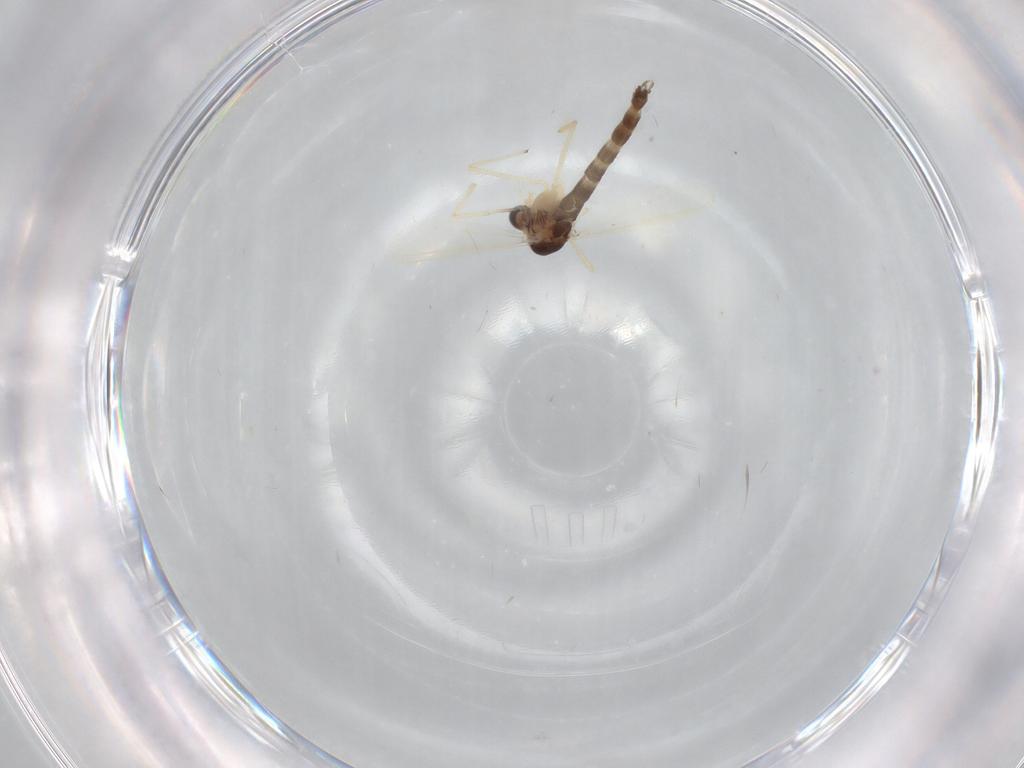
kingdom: Animalia
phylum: Arthropoda
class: Insecta
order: Diptera
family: Chironomidae
